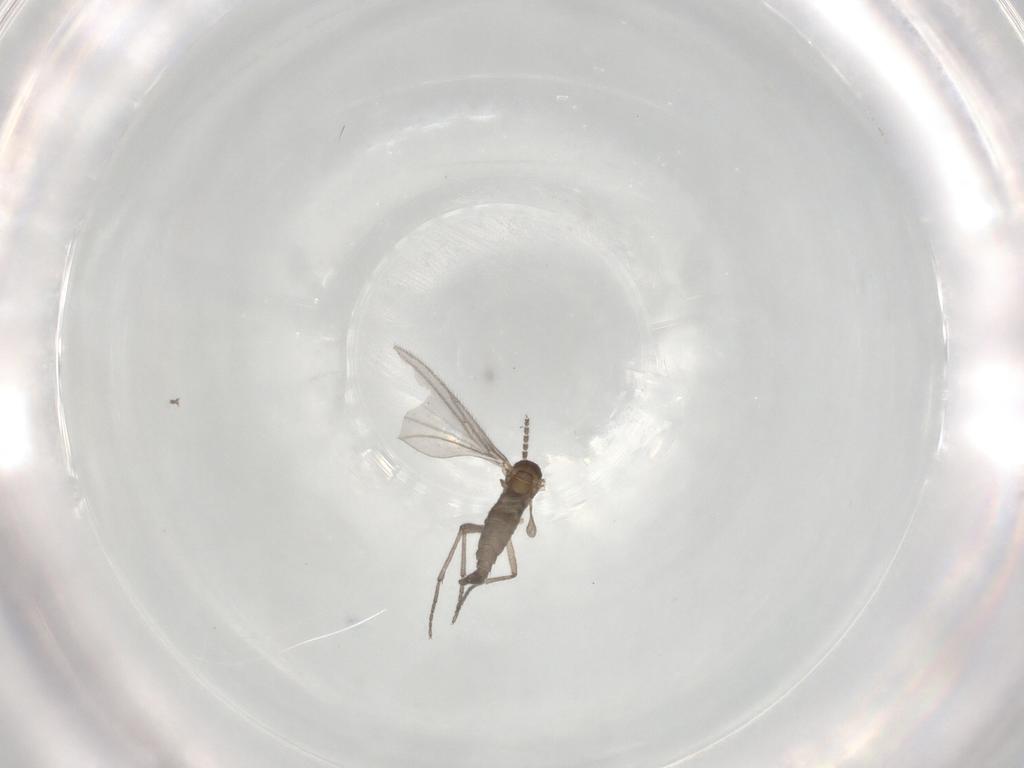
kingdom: Animalia
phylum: Arthropoda
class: Insecta
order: Diptera
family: Sciaridae
